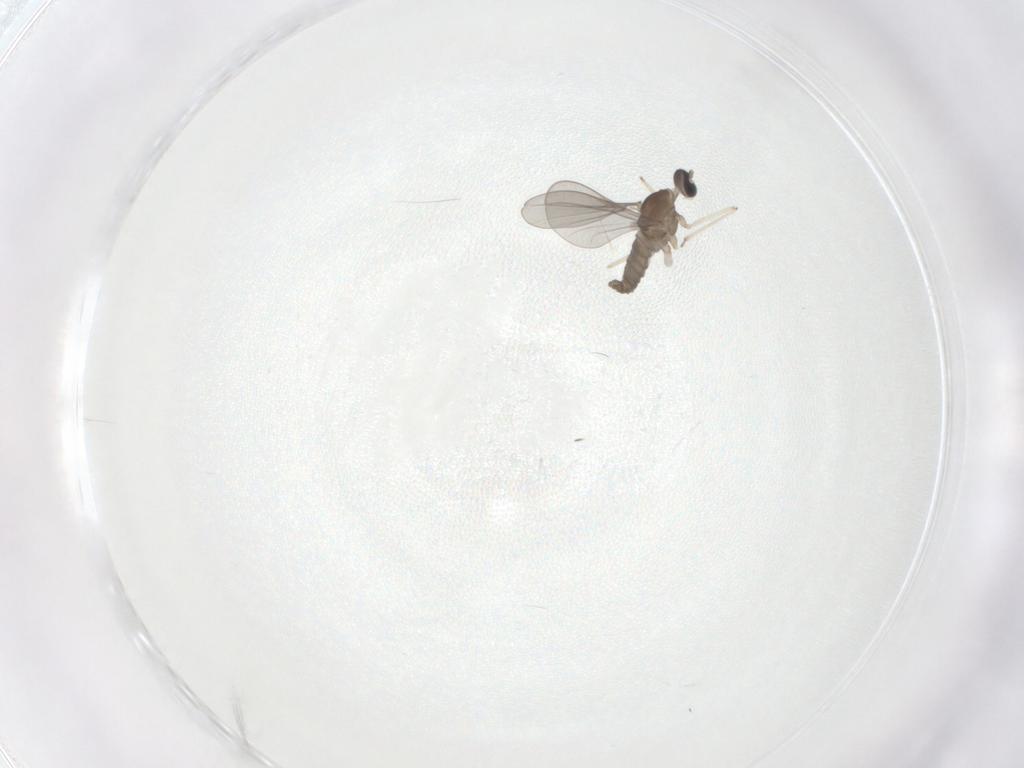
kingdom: Animalia
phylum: Arthropoda
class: Insecta
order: Diptera
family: Cecidomyiidae
